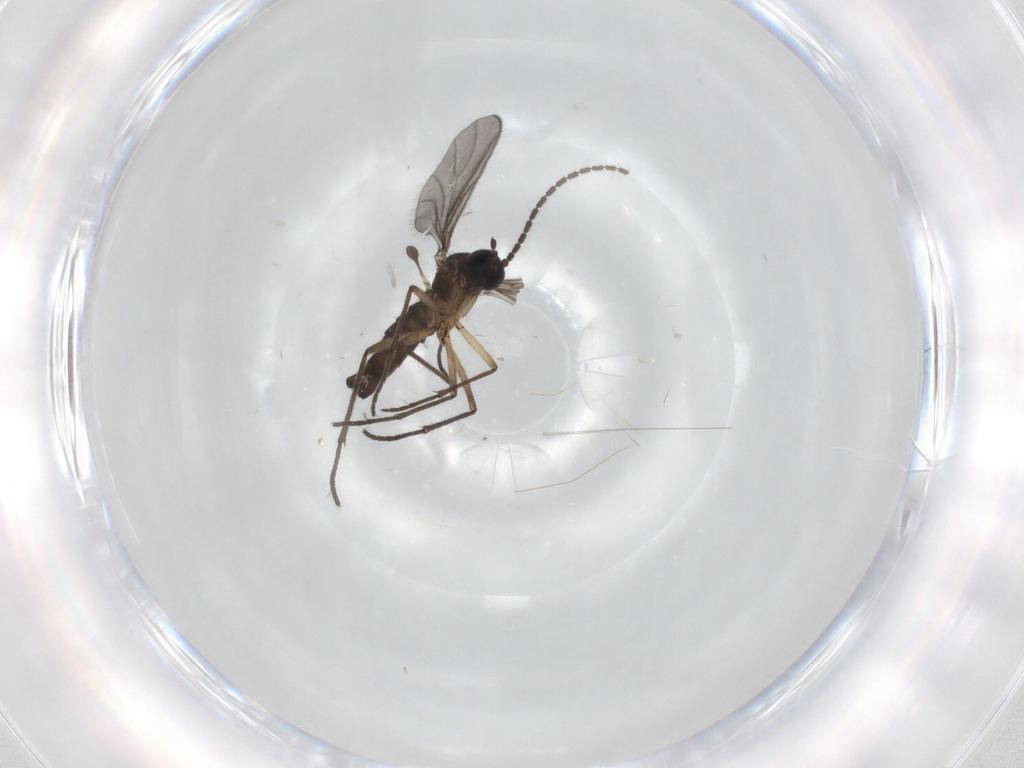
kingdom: Animalia
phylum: Arthropoda
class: Insecta
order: Diptera
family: Sciaridae
